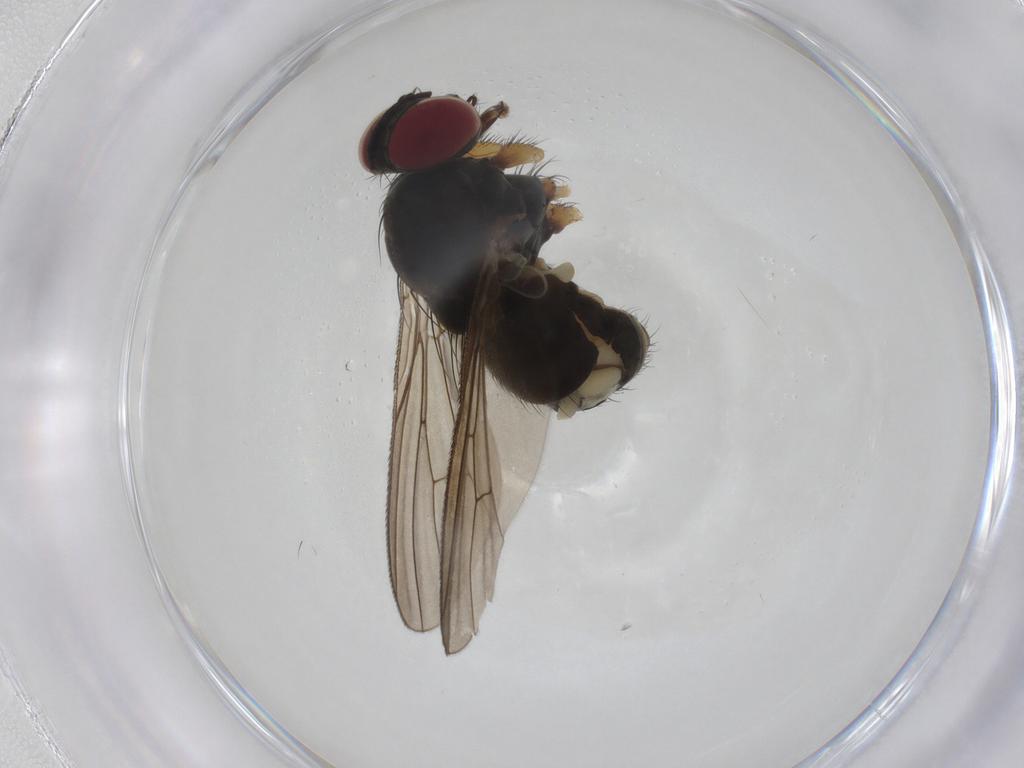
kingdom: Animalia
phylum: Arthropoda
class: Insecta
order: Diptera
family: Muscidae
